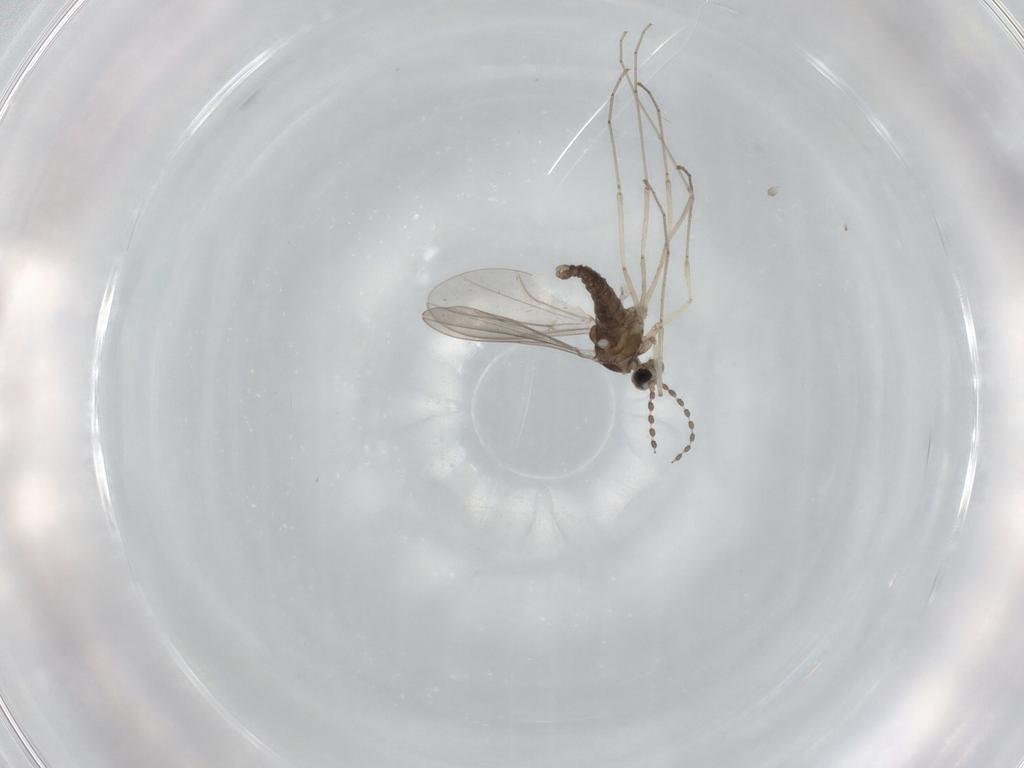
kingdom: Animalia
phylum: Arthropoda
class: Insecta
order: Diptera
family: Cecidomyiidae
